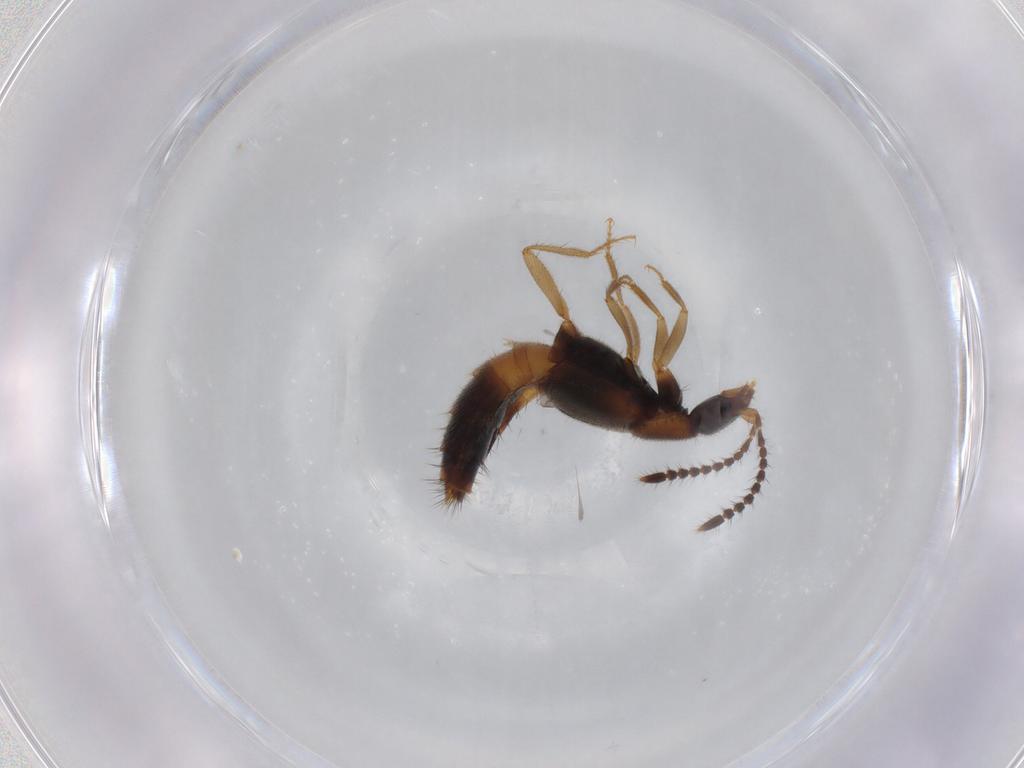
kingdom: Animalia
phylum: Arthropoda
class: Insecta
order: Coleoptera
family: Staphylinidae
